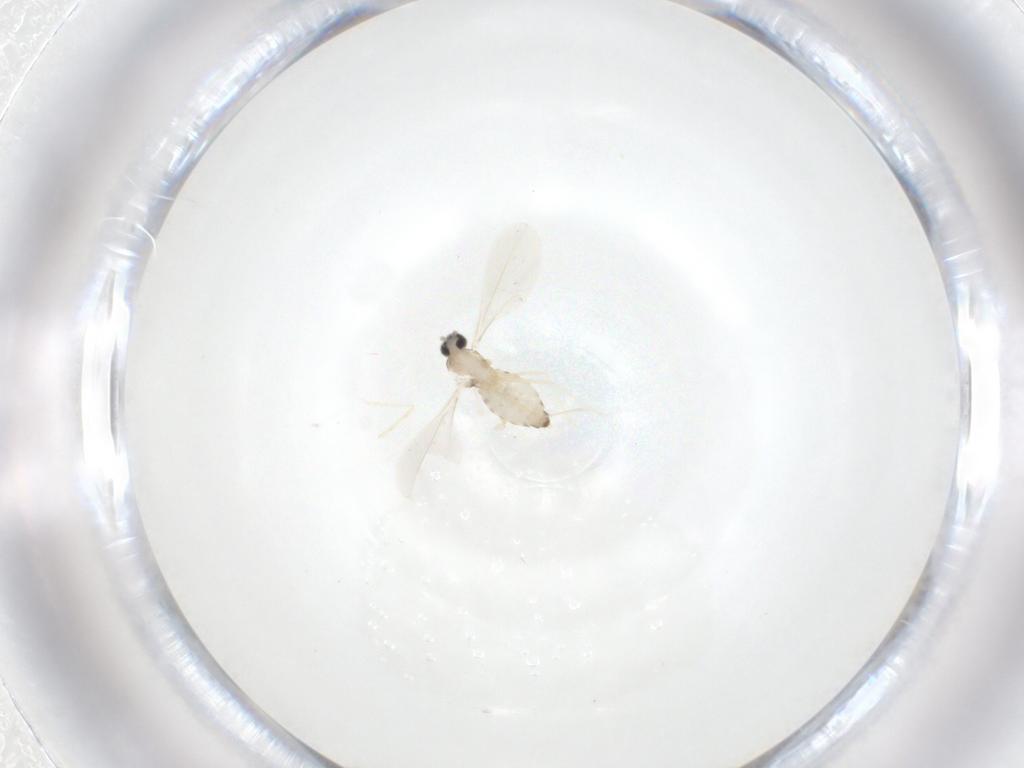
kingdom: Animalia
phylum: Arthropoda
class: Insecta
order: Diptera
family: Cecidomyiidae
